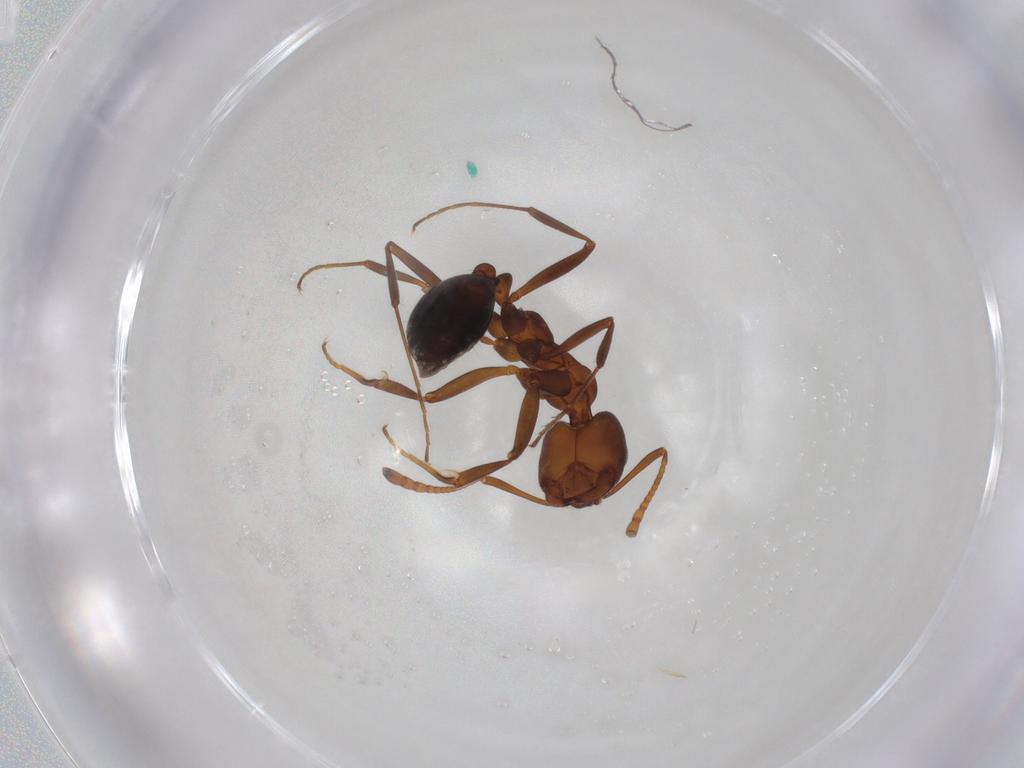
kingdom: Animalia
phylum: Arthropoda
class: Insecta
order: Hymenoptera
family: Formicidae
